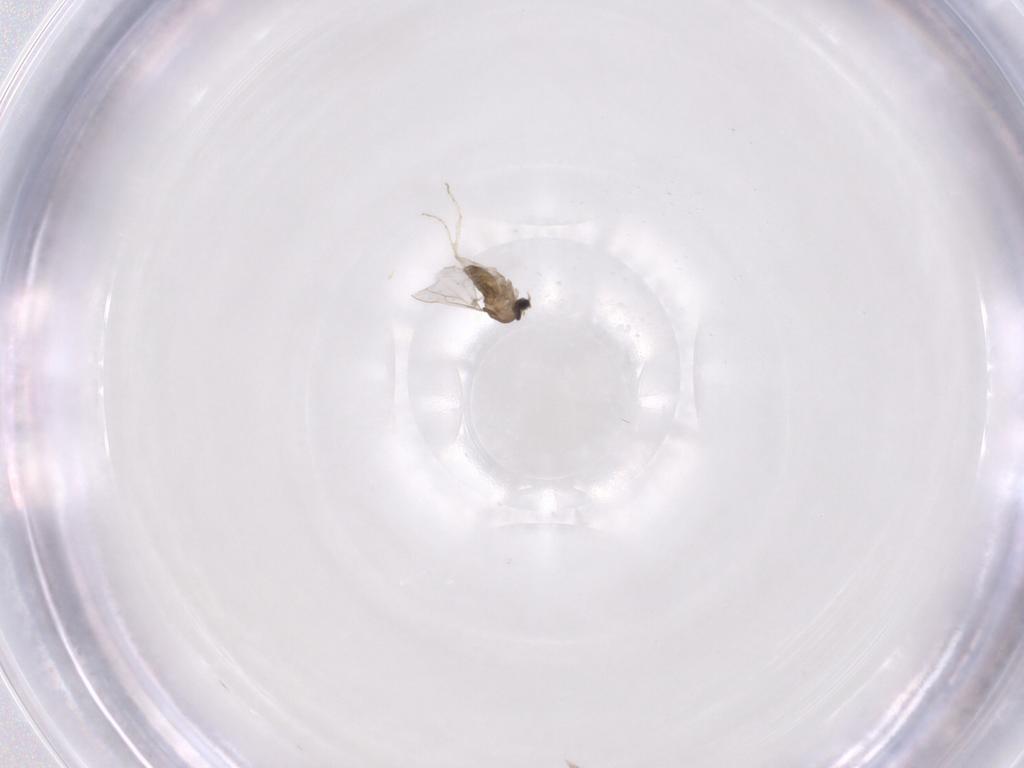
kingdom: Animalia
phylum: Arthropoda
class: Insecta
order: Diptera
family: Cecidomyiidae
